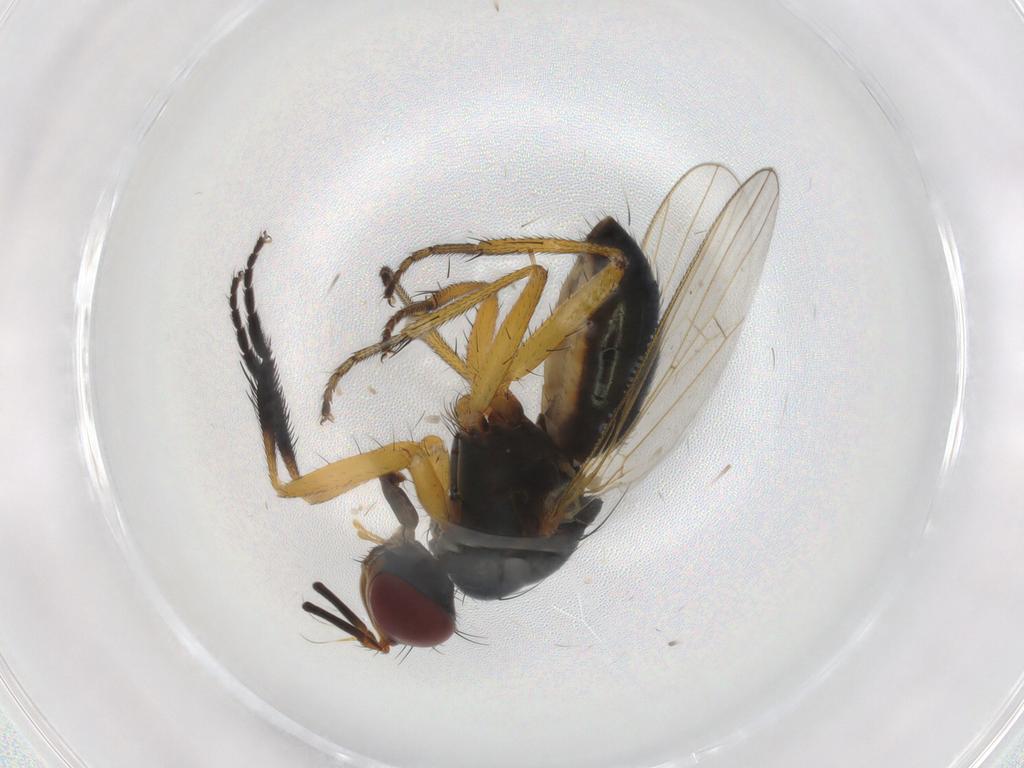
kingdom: Animalia
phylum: Arthropoda
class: Insecta
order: Diptera
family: Muscidae
